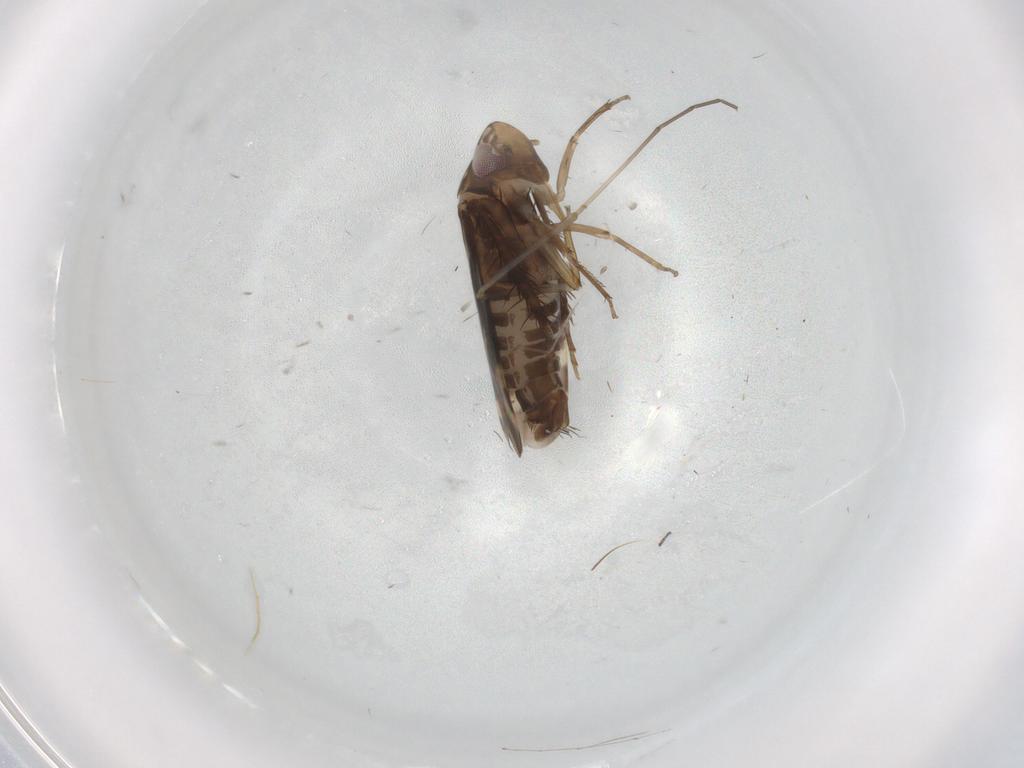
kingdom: Animalia
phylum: Arthropoda
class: Insecta
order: Hemiptera
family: Cicadellidae
